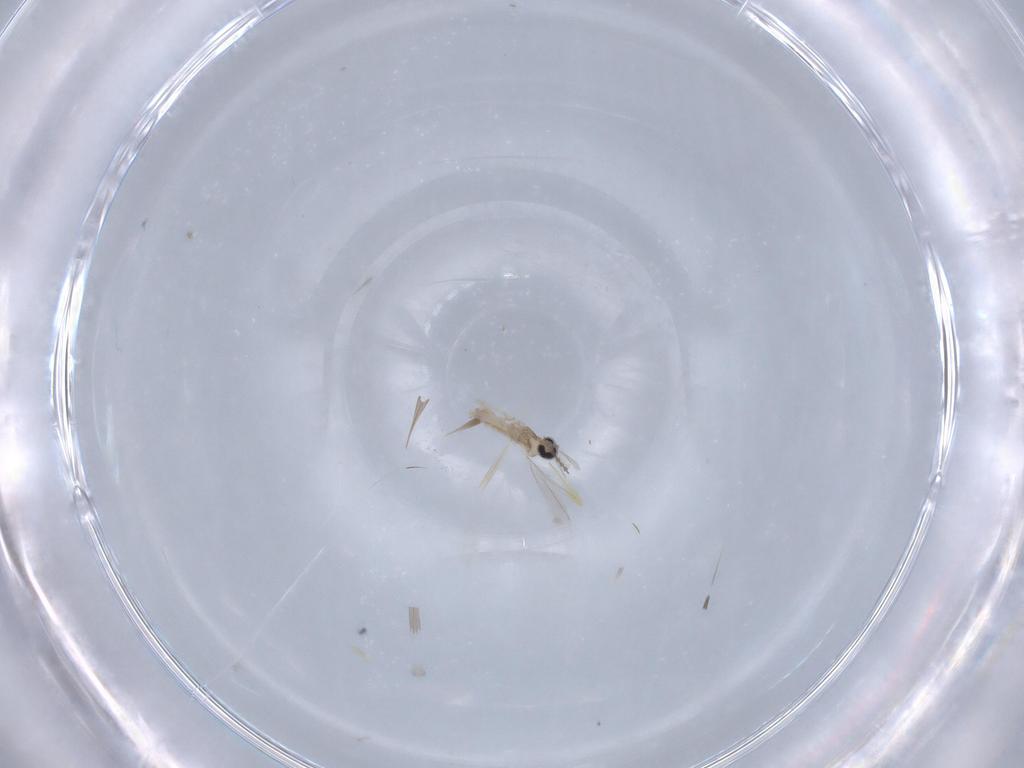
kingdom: Animalia
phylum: Arthropoda
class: Insecta
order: Diptera
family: Cecidomyiidae
